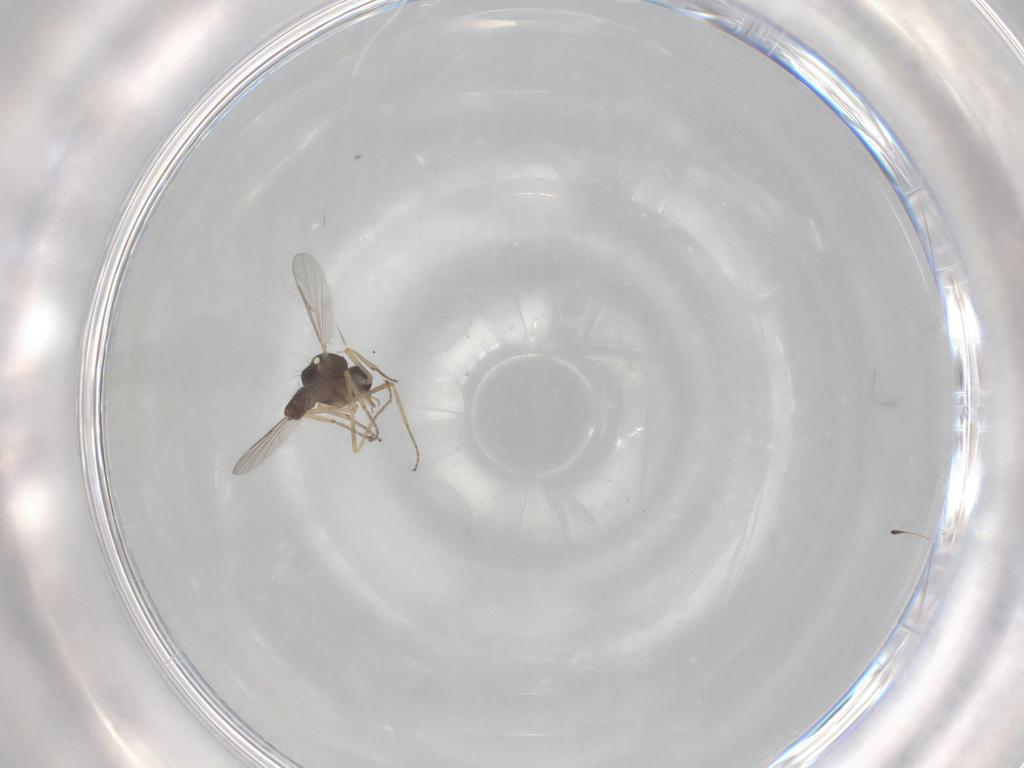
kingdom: Animalia
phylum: Arthropoda
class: Insecta
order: Diptera
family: Ceratopogonidae
